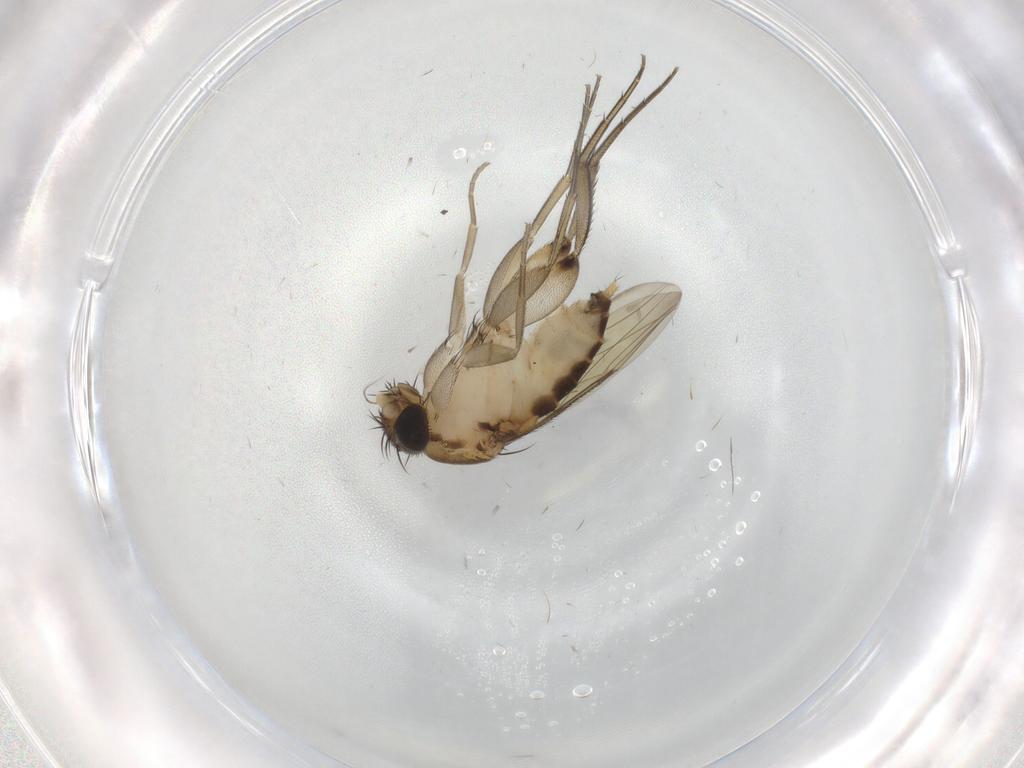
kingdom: Animalia
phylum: Arthropoda
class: Insecta
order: Diptera
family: Phoridae
